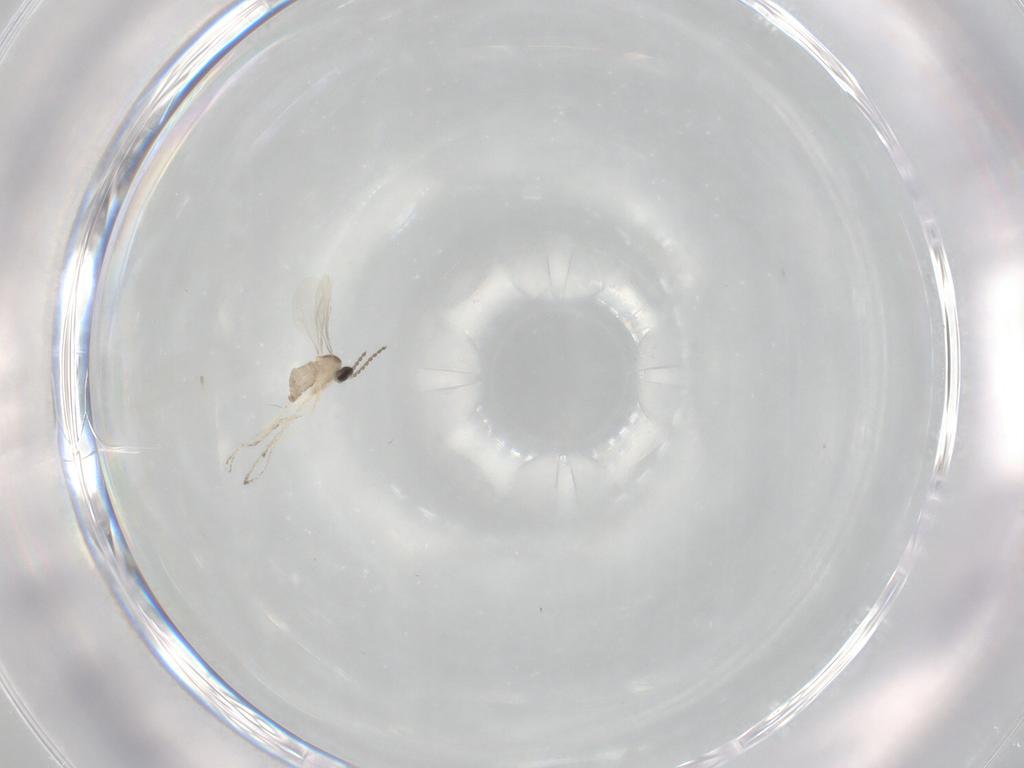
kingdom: Animalia
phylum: Arthropoda
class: Insecta
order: Diptera
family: Cecidomyiidae
